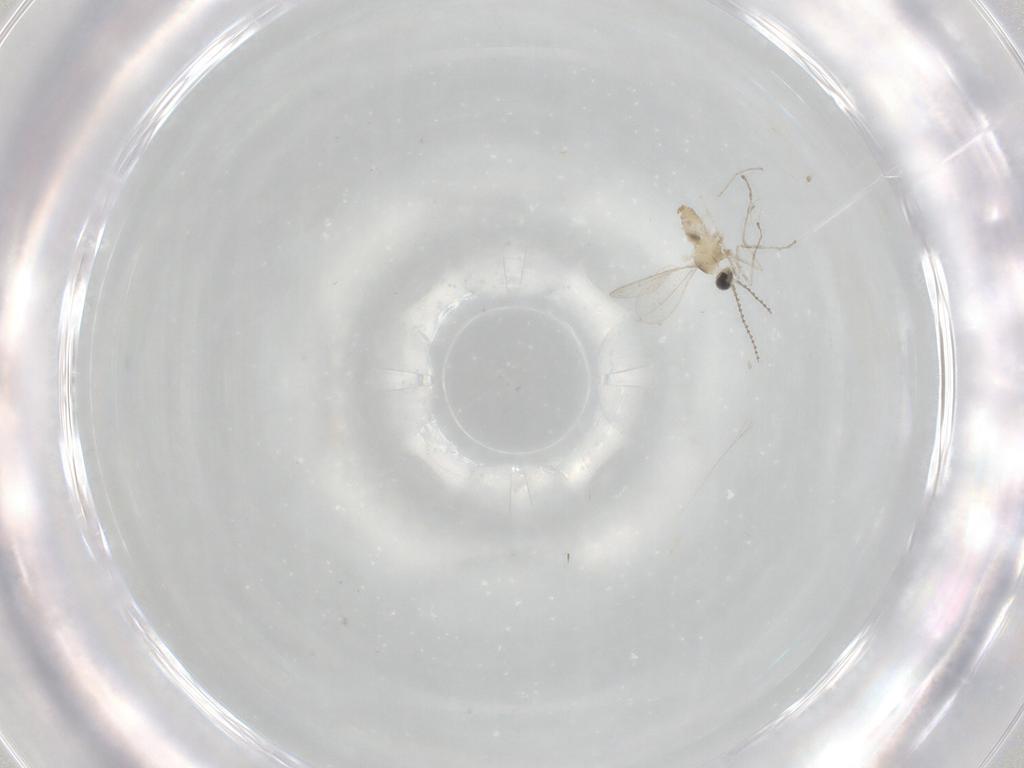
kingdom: Animalia
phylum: Arthropoda
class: Insecta
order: Diptera
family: Cecidomyiidae
